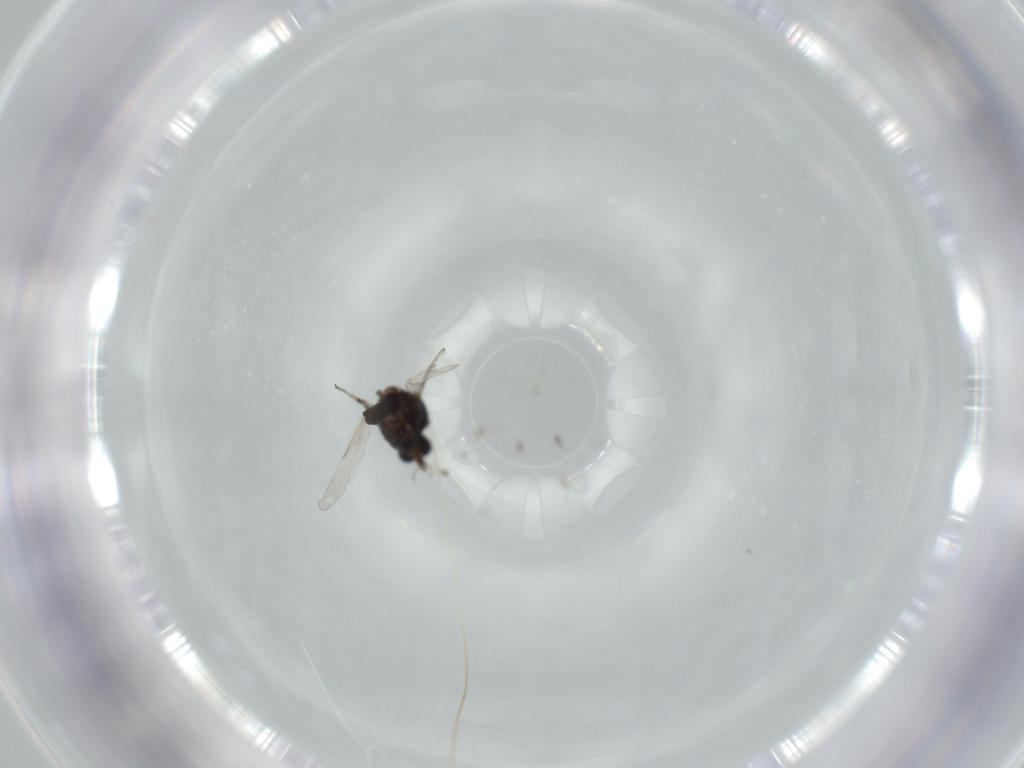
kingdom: Animalia
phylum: Arthropoda
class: Insecta
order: Diptera
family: Ceratopogonidae
